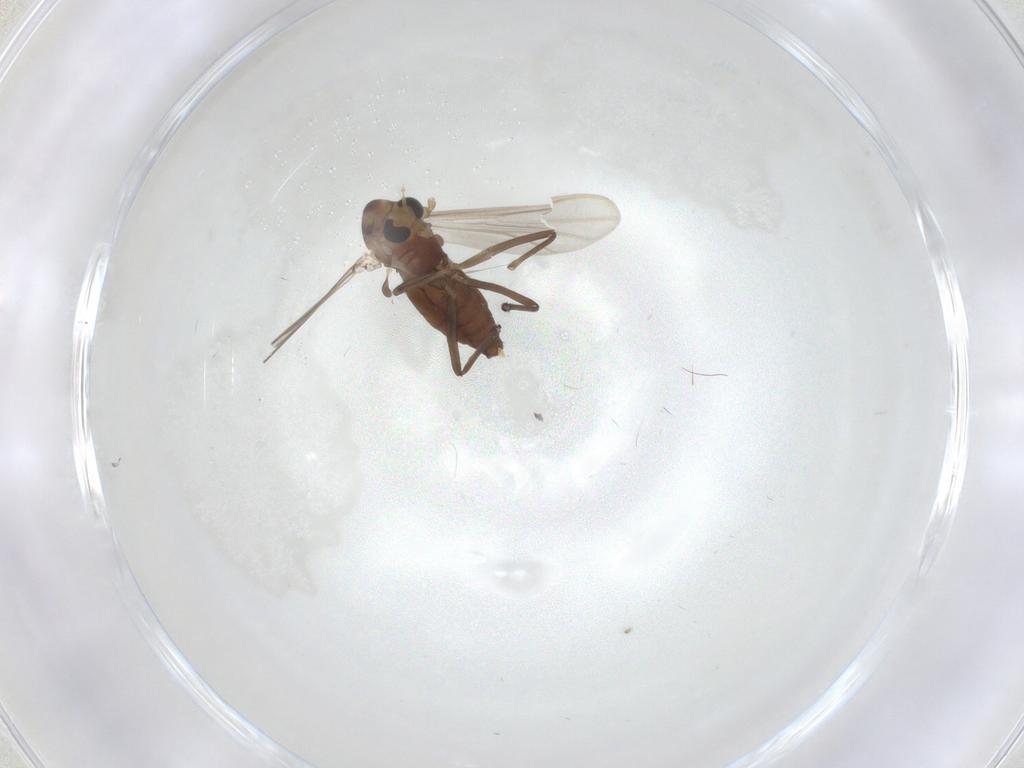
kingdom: Animalia
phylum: Arthropoda
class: Insecta
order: Diptera
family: Chironomidae
